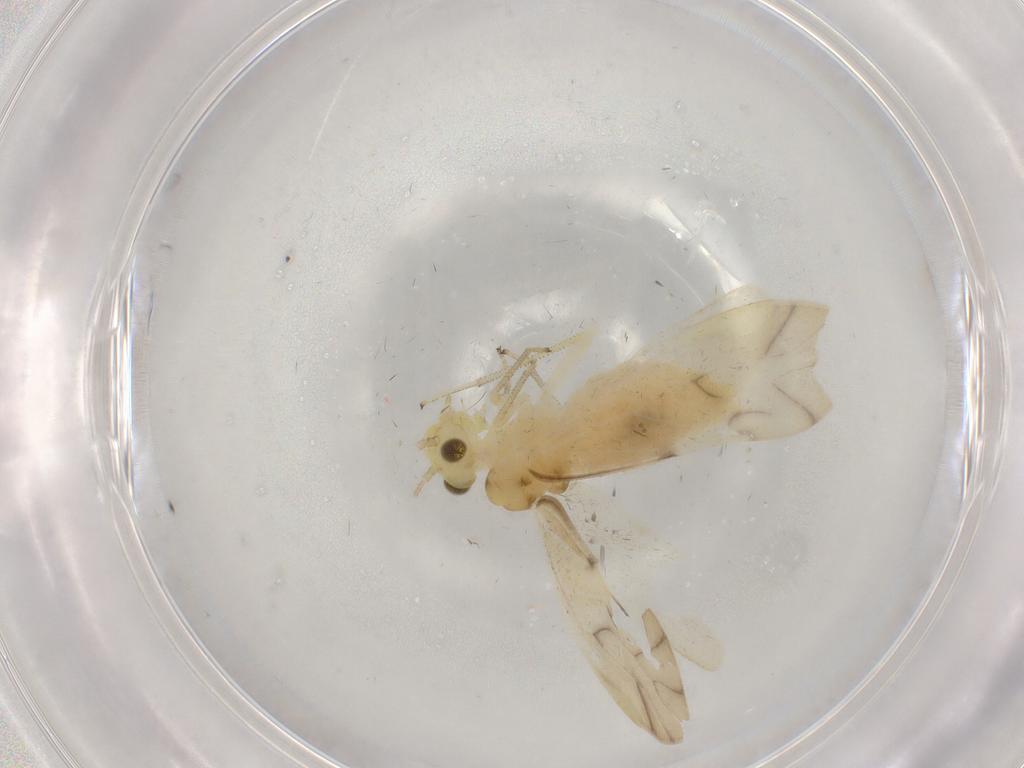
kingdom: Animalia
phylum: Arthropoda
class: Insecta
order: Psocodea
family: Caeciliusidae
